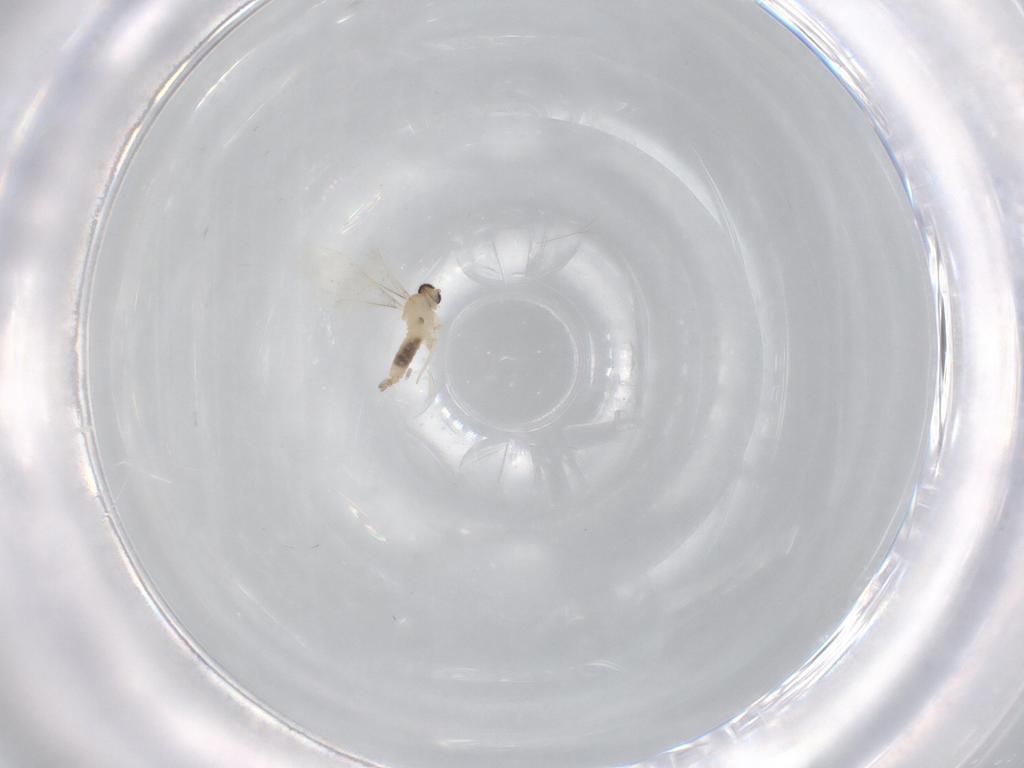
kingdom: Animalia
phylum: Arthropoda
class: Insecta
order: Diptera
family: Cecidomyiidae
